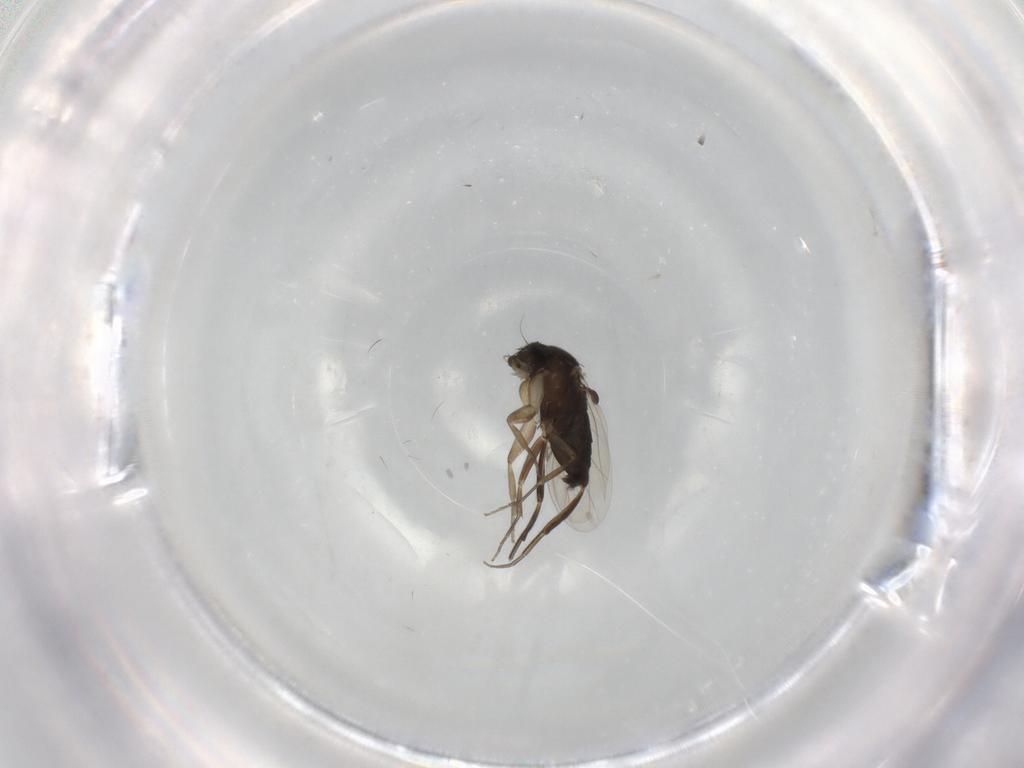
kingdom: Animalia
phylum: Arthropoda
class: Insecta
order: Diptera
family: Phoridae
